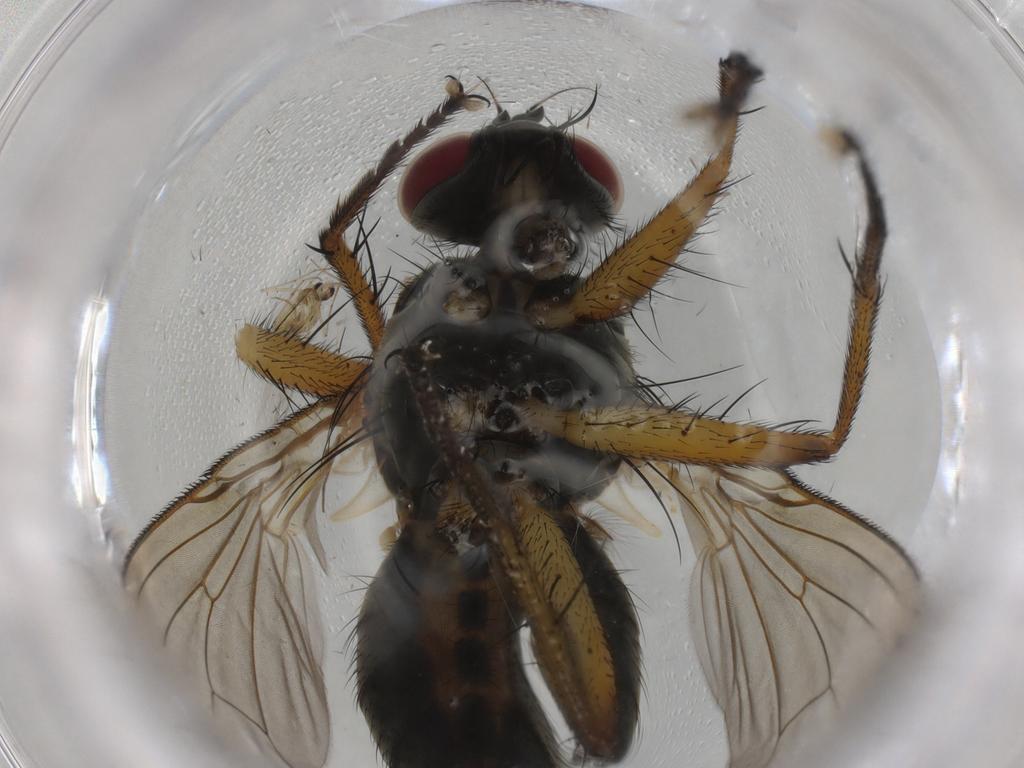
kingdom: Animalia
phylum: Arthropoda
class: Insecta
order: Diptera
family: Muscidae
